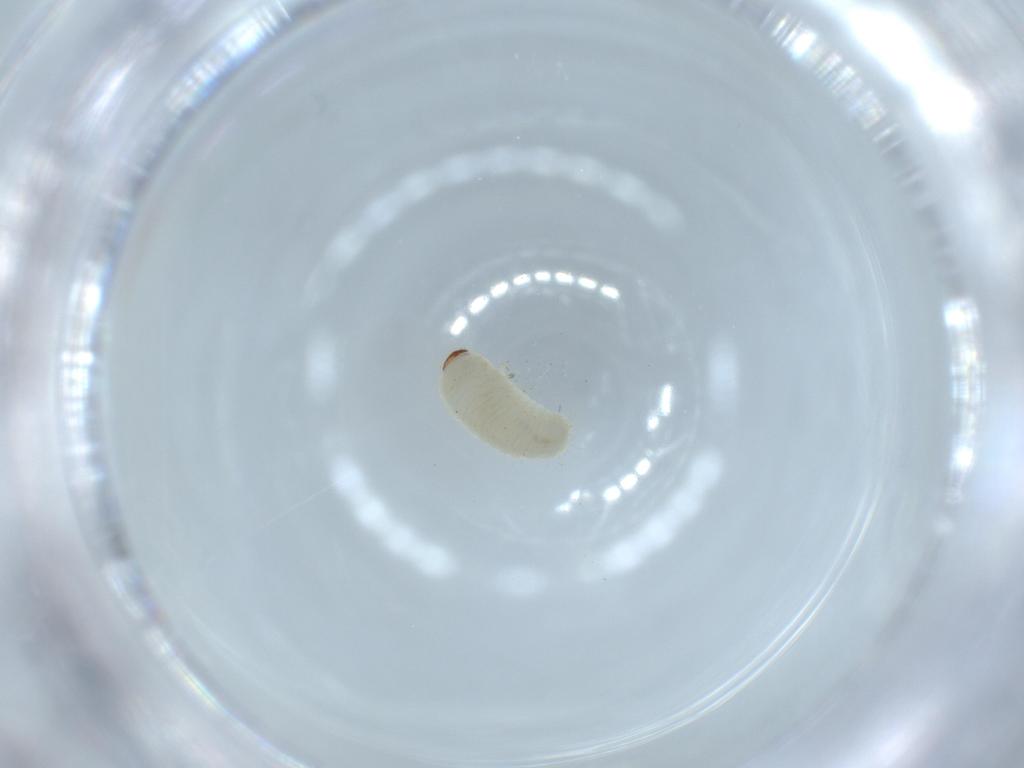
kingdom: Animalia
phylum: Arthropoda
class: Insecta
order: Coleoptera
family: Bostrichidae
